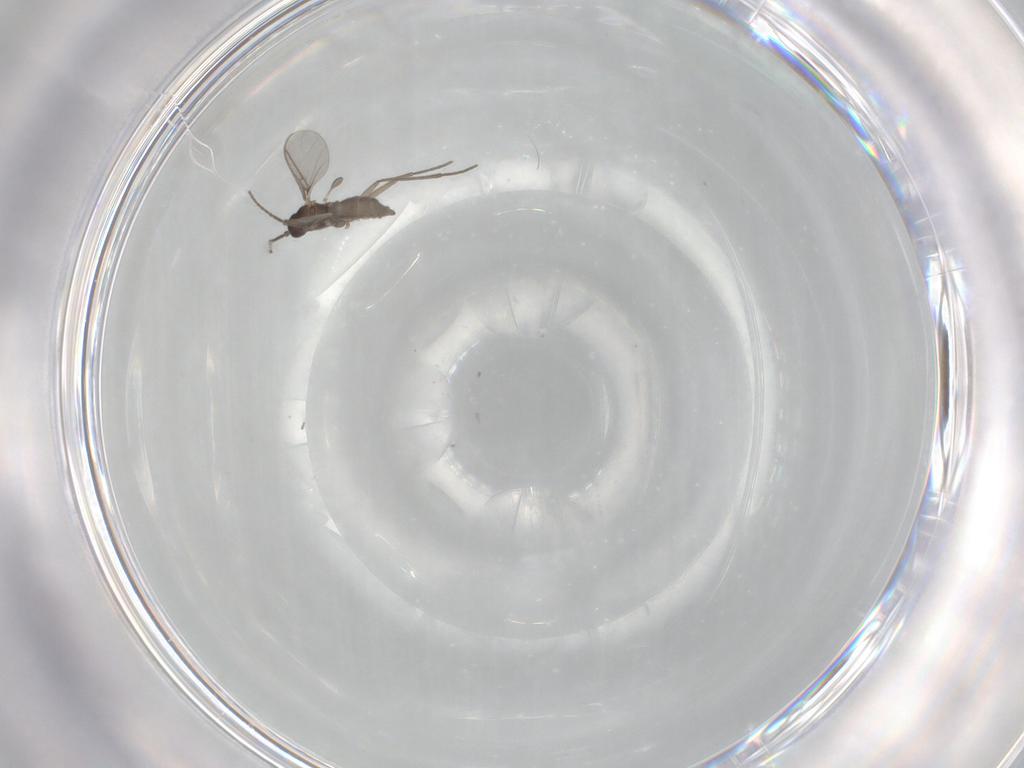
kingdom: Animalia
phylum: Arthropoda
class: Insecta
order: Diptera
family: Sciaridae
